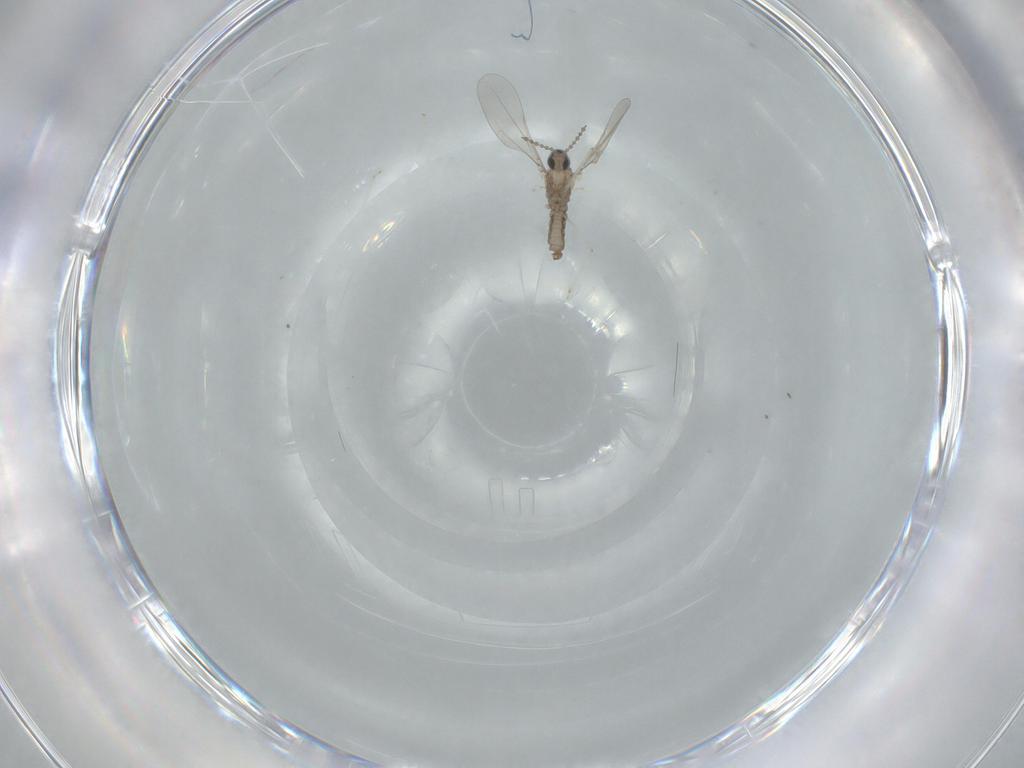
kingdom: Animalia
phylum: Arthropoda
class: Insecta
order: Diptera
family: Cecidomyiidae
